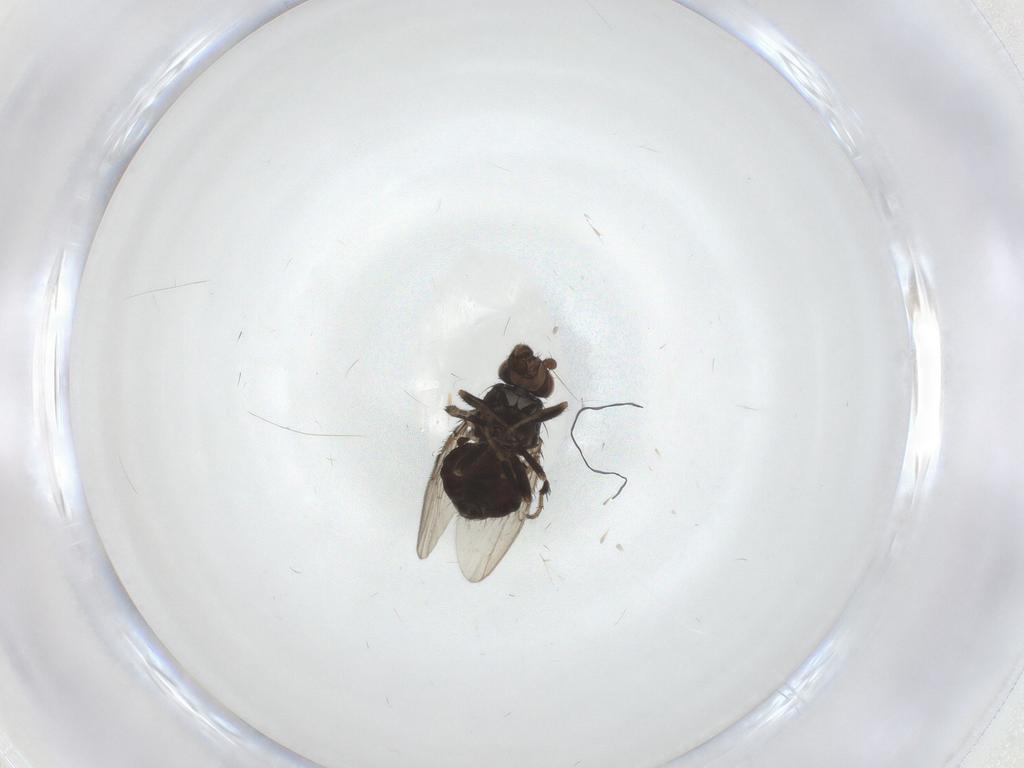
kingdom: Animalia
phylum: Arthropoda
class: Insecta
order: Diptera
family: Sphaeroceridae
